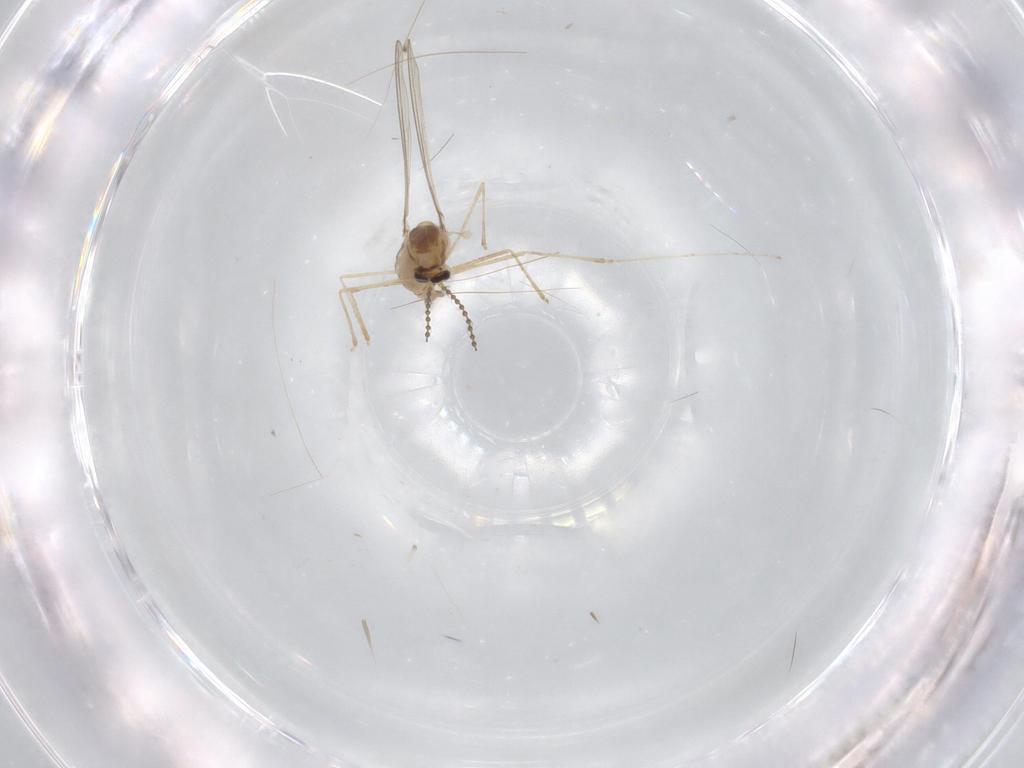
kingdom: Animalia
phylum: Arthropoda
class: Insecta
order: Diptera
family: Cecidomyiidae
